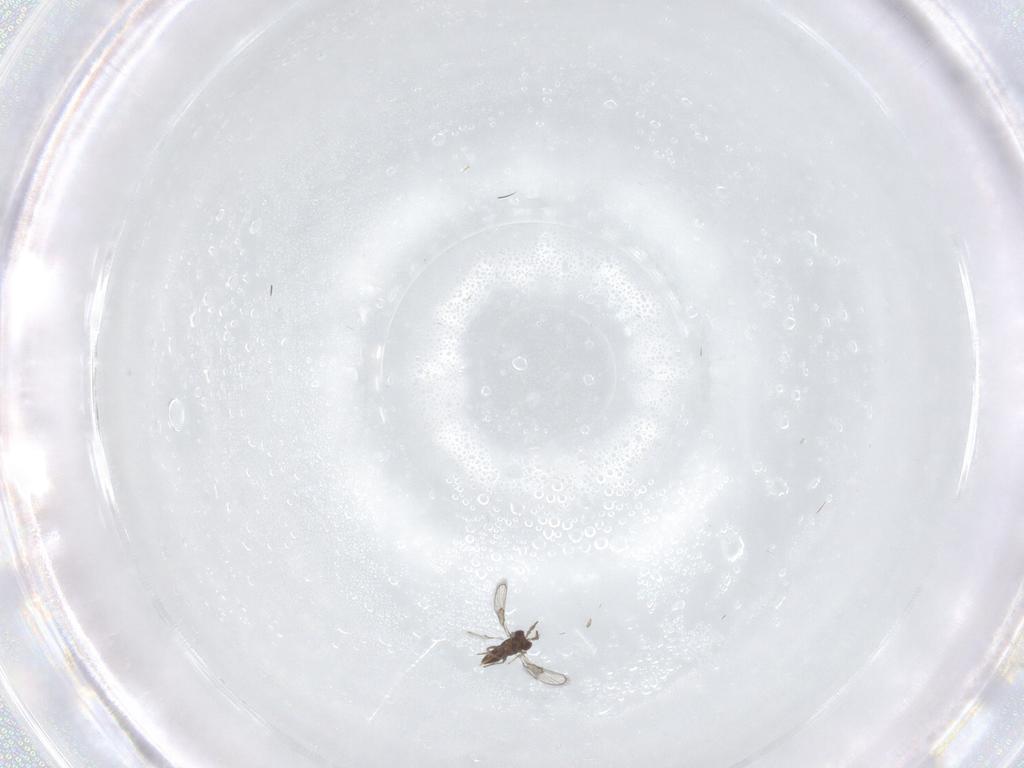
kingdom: Animalia
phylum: Arthropoda
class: Insecta
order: Hymenoptera
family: Trichogrammatidae
